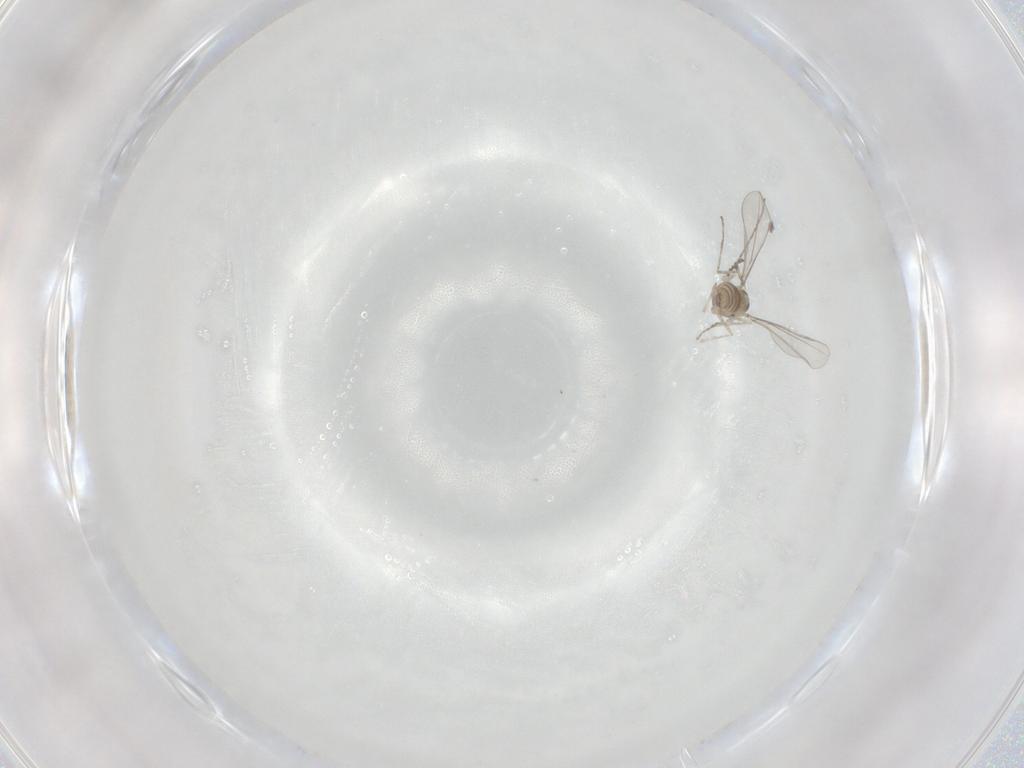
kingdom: Animalia
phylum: Arthropoda
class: Insecta
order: Diptera
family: Cecidomyiidae
